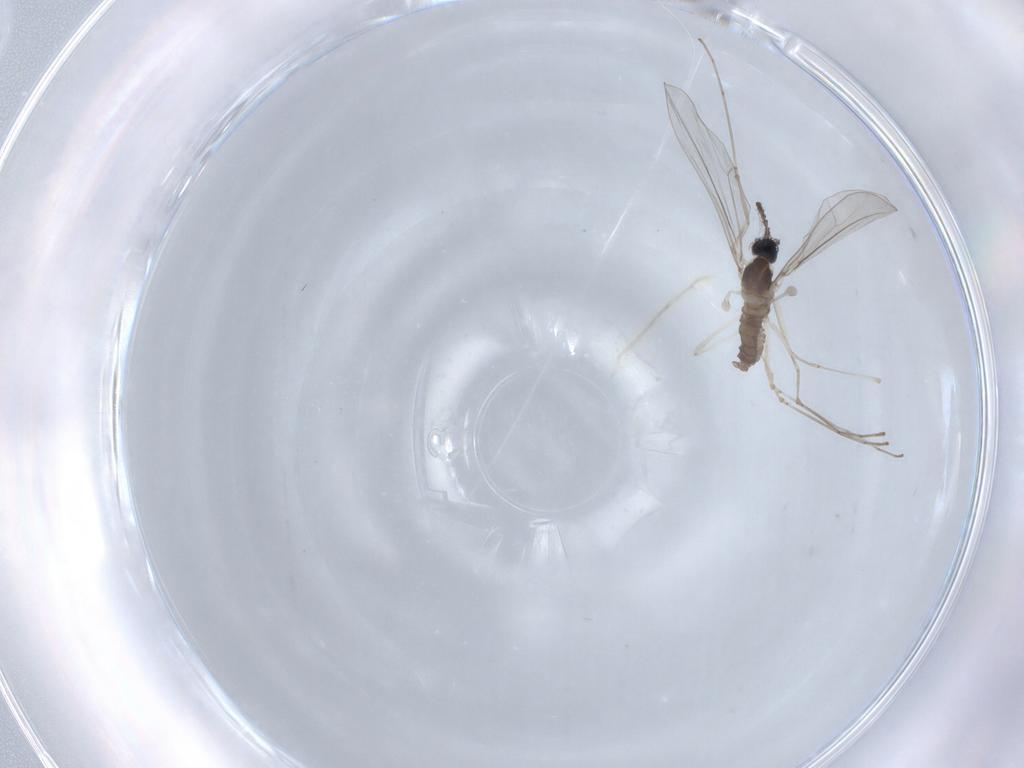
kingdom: Animalia
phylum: Arthropoda
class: Insecta
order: Diptera
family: Cecidomyiidae
